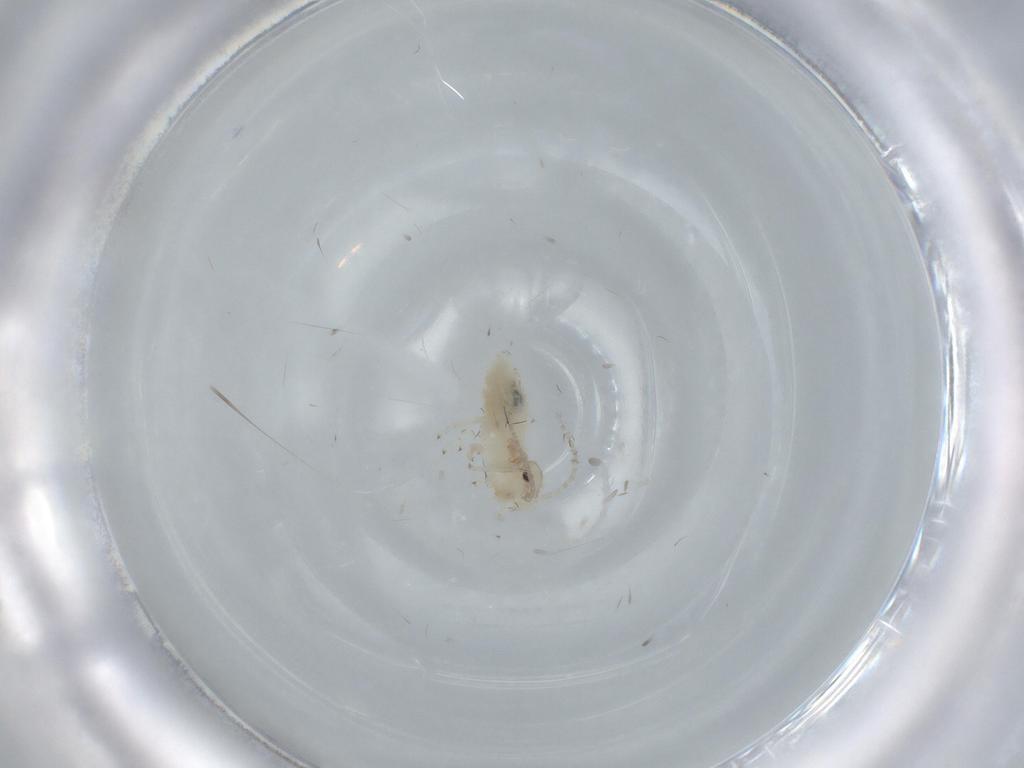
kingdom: Animalia
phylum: Arthropoda
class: Insecta
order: Psocodea
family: Amphipsocidae
